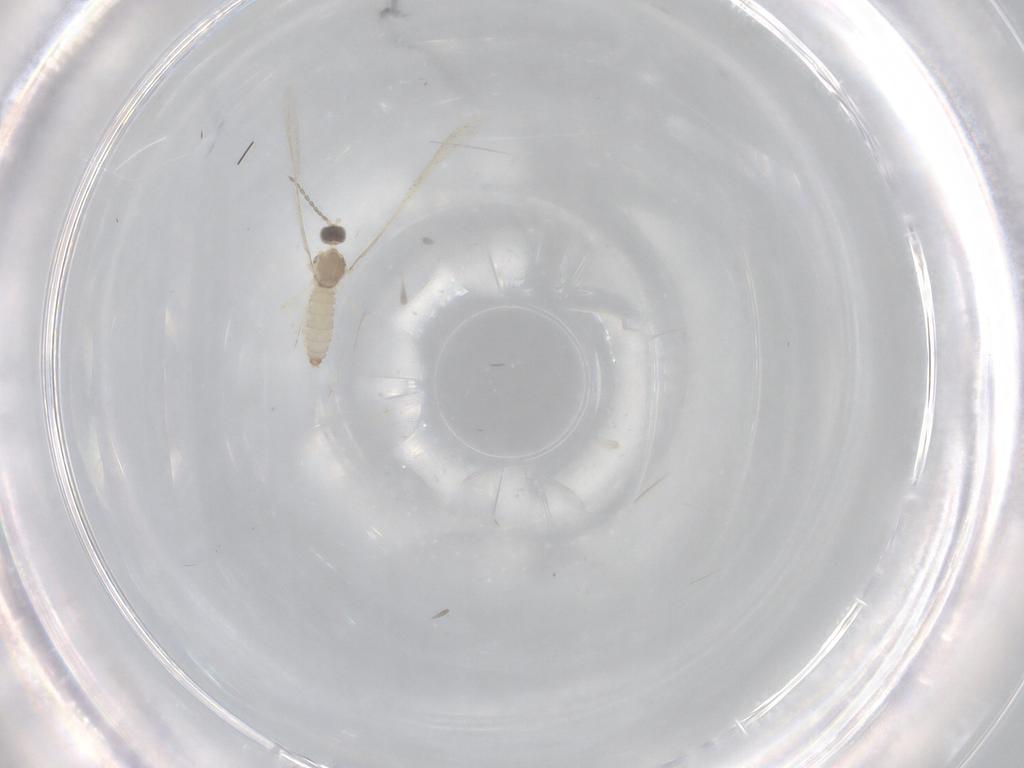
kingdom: Animalia
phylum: Arthropoda
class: Insecta
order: Diptera
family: Cecidomyiidae
